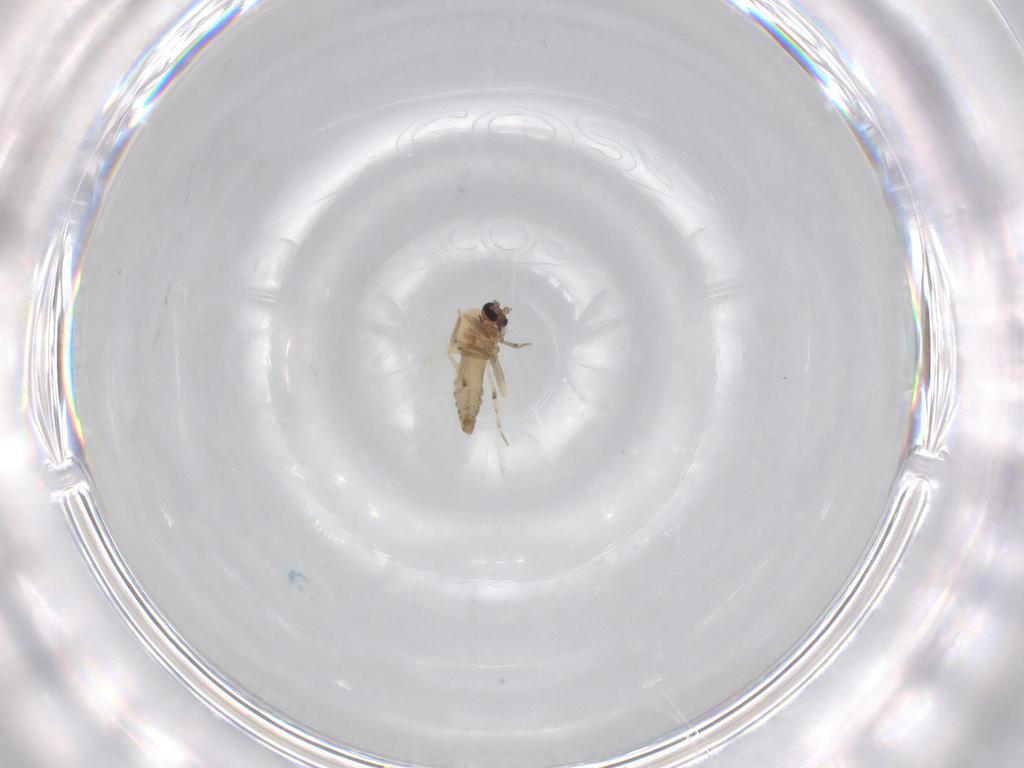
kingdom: Animalia
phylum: Arthropoda
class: Insecta
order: Diptera
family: Ceratopogonidae
